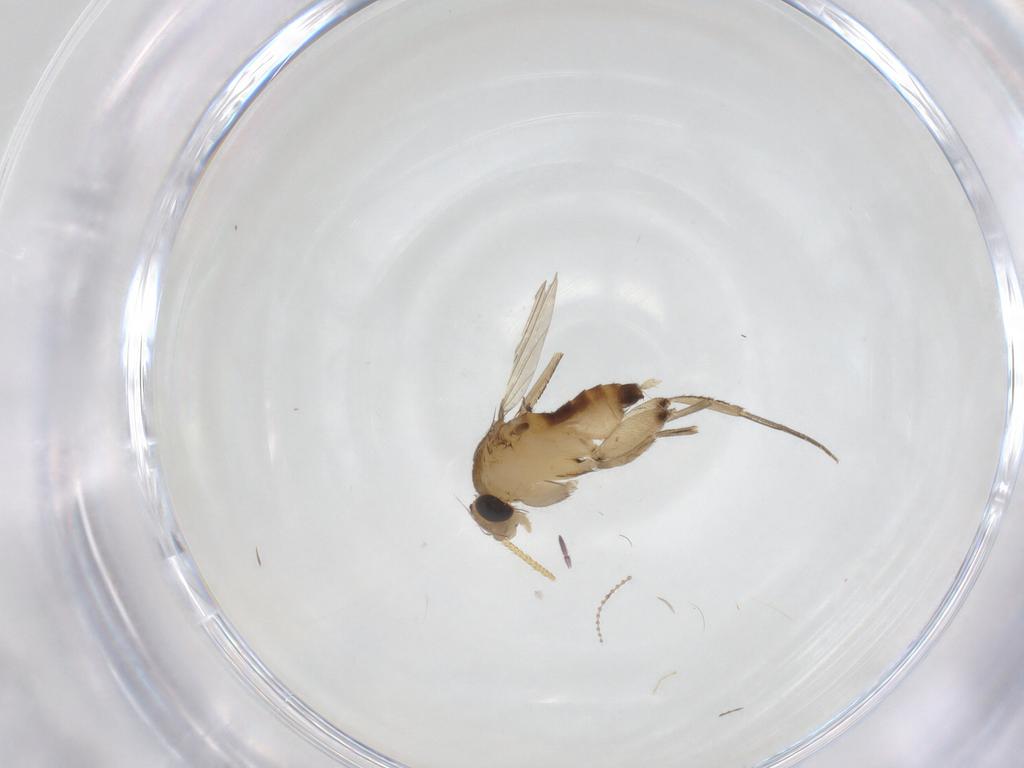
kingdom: Animalia
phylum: Arthropoda
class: Insecta
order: Diptera
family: Phoridae
